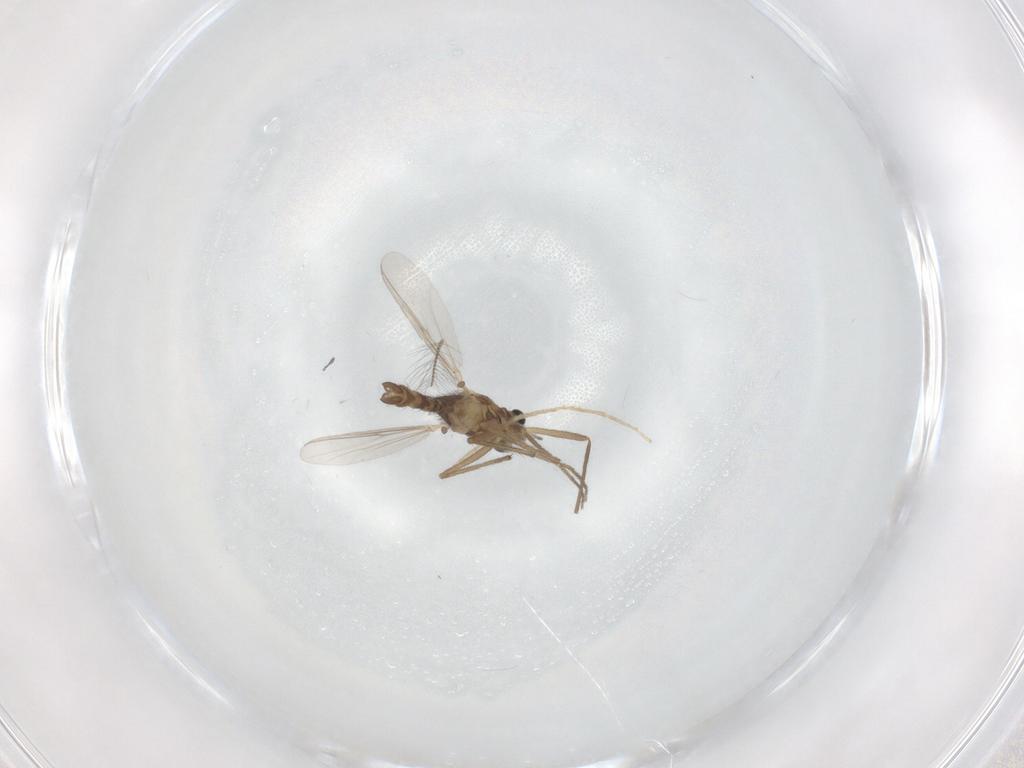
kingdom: Animalia
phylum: Arthropoda
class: Insecta
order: Diptera
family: Chironomidae
